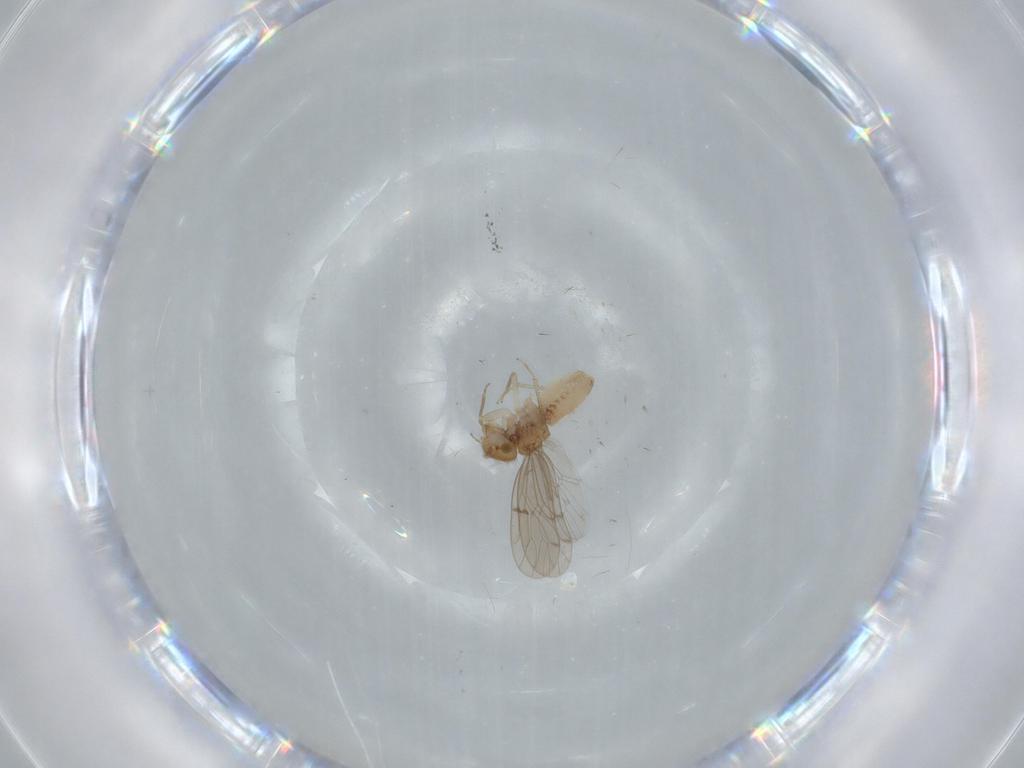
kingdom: Animalia
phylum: Arthropoda
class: Insecta
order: Psocodea
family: Ectopsocidae
